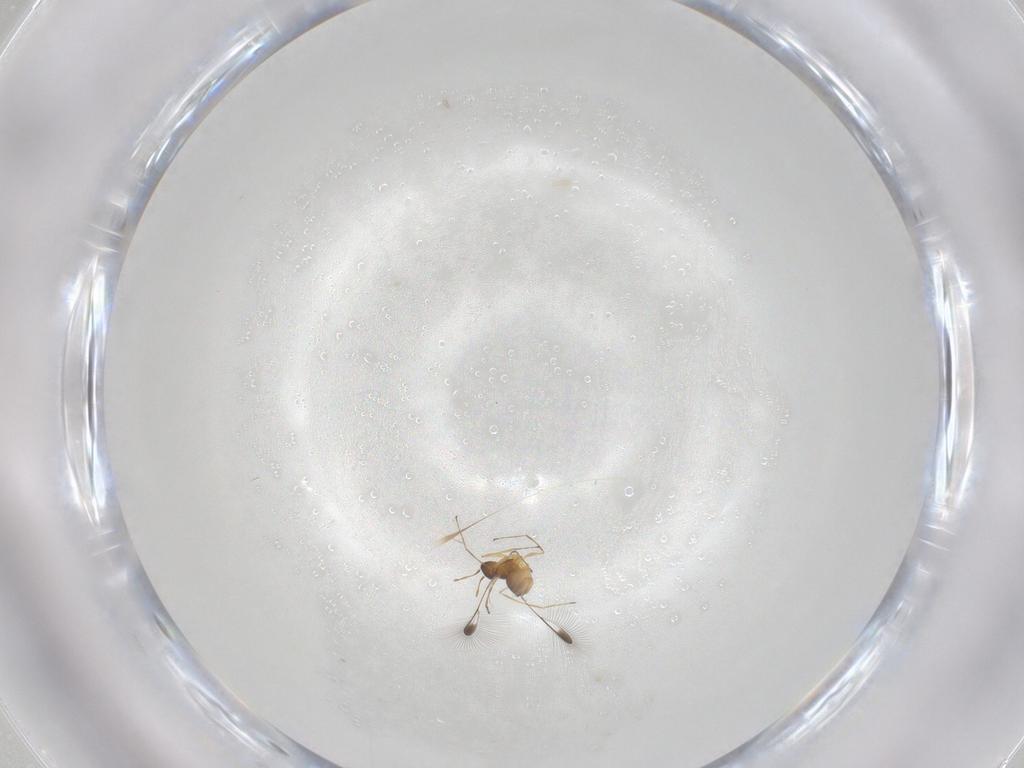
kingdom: Animalia
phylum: Arthropoda
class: Insecta
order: Hymenoptera
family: Mymaridae
